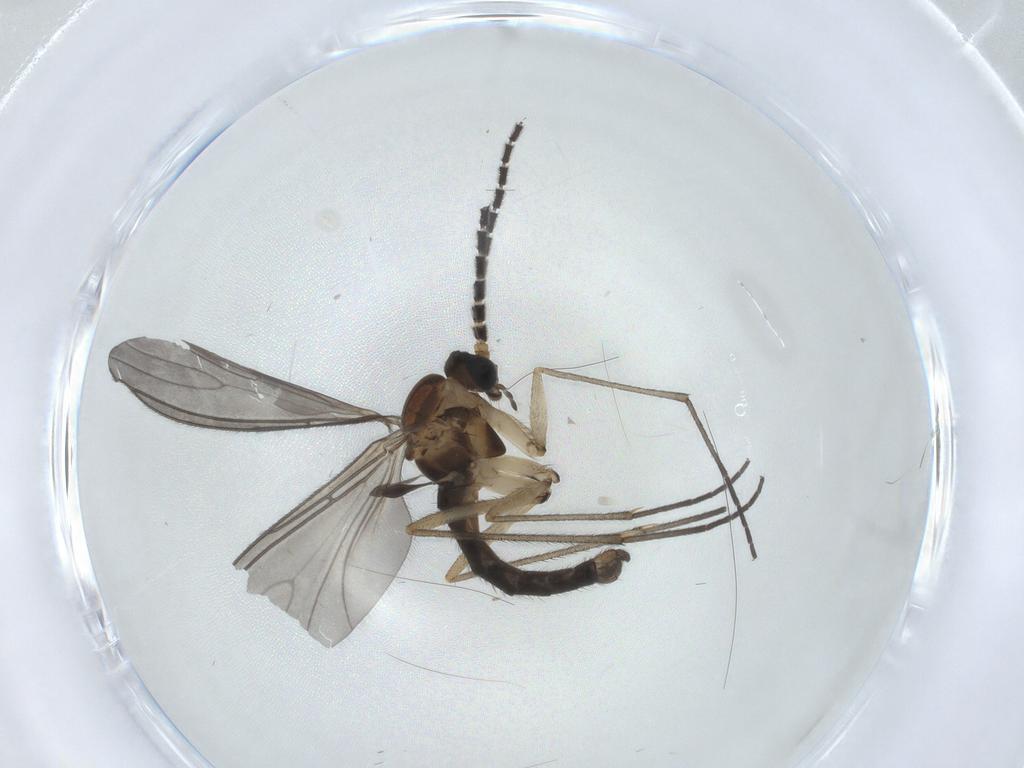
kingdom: Animalia
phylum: Arthropoda
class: Insecta
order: Diptera
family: Sciaridae
